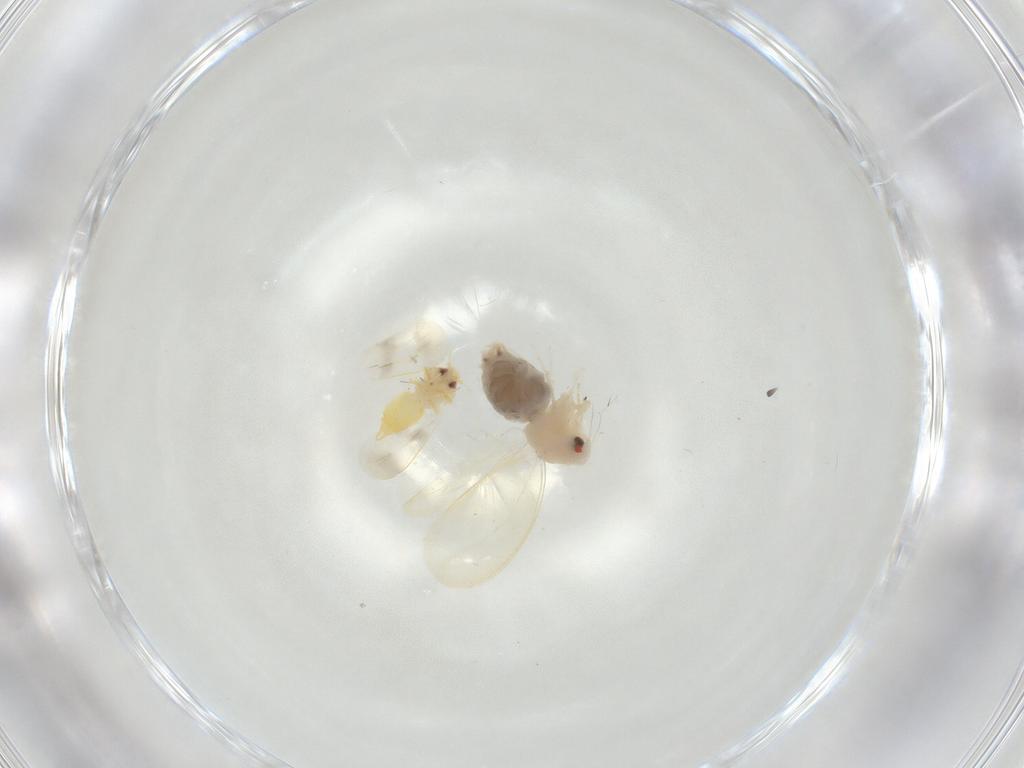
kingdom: Animalia
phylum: Arthropoda
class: Insecta
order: Hemiptera
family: Aleyrodidae
